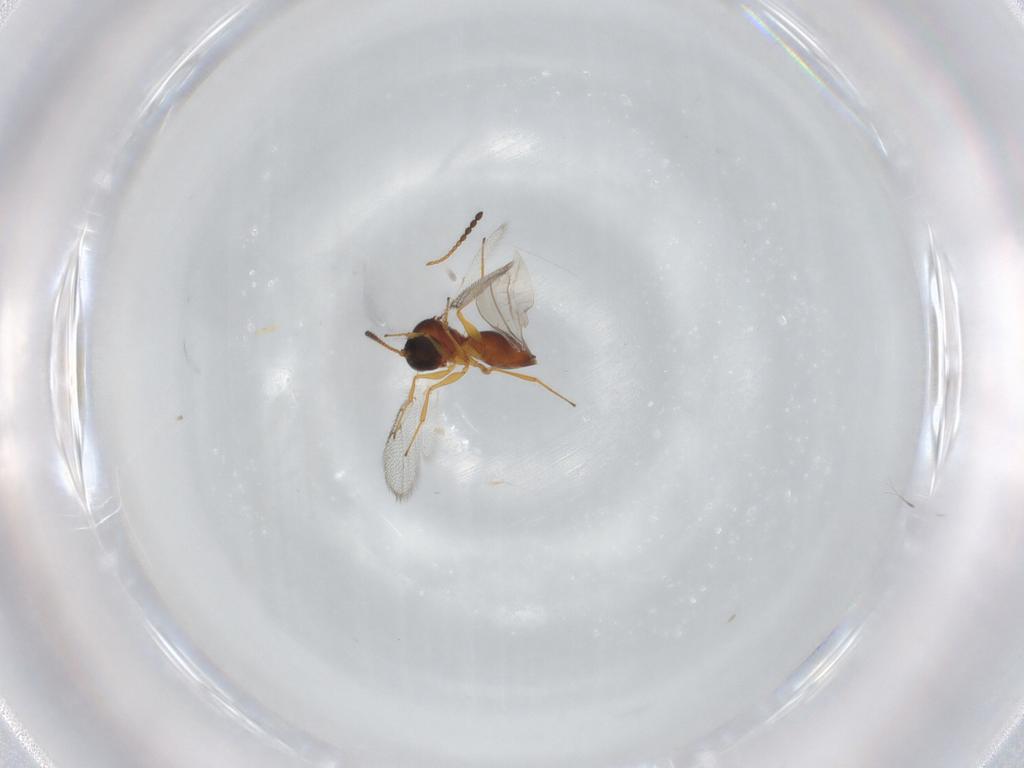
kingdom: Animalia
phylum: Arthropoda
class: Insecta
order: Hymenoptera
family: Figitidae
